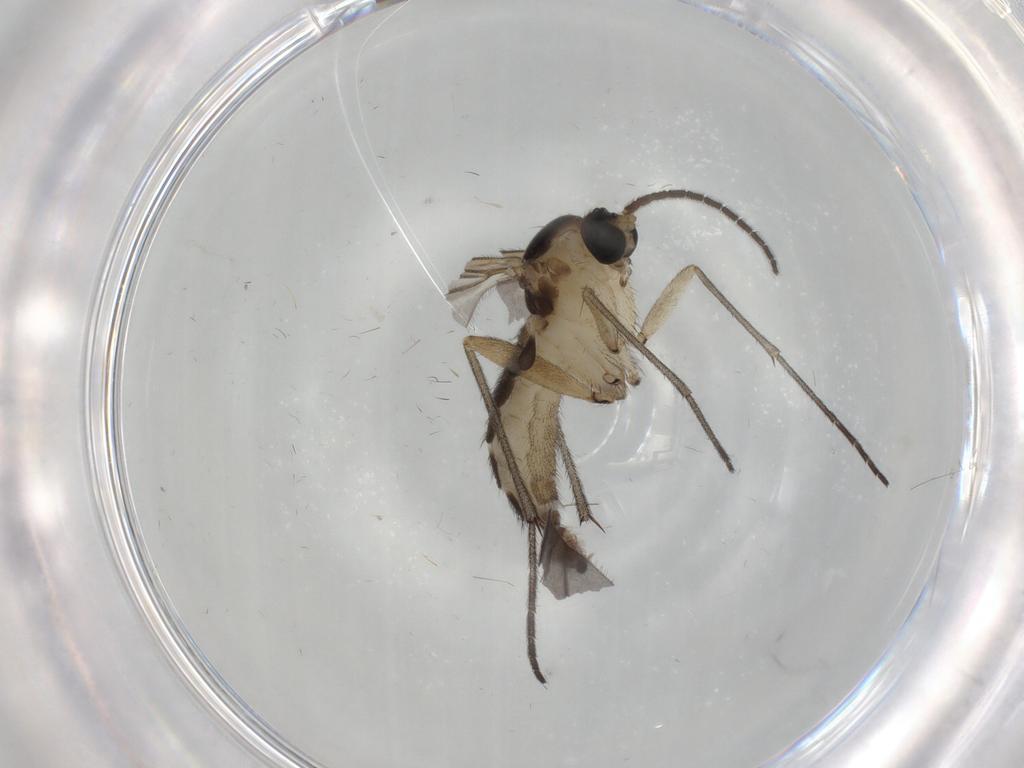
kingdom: Animalia
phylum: Arthropoda
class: Insecta
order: Diptera
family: Sciaridae
